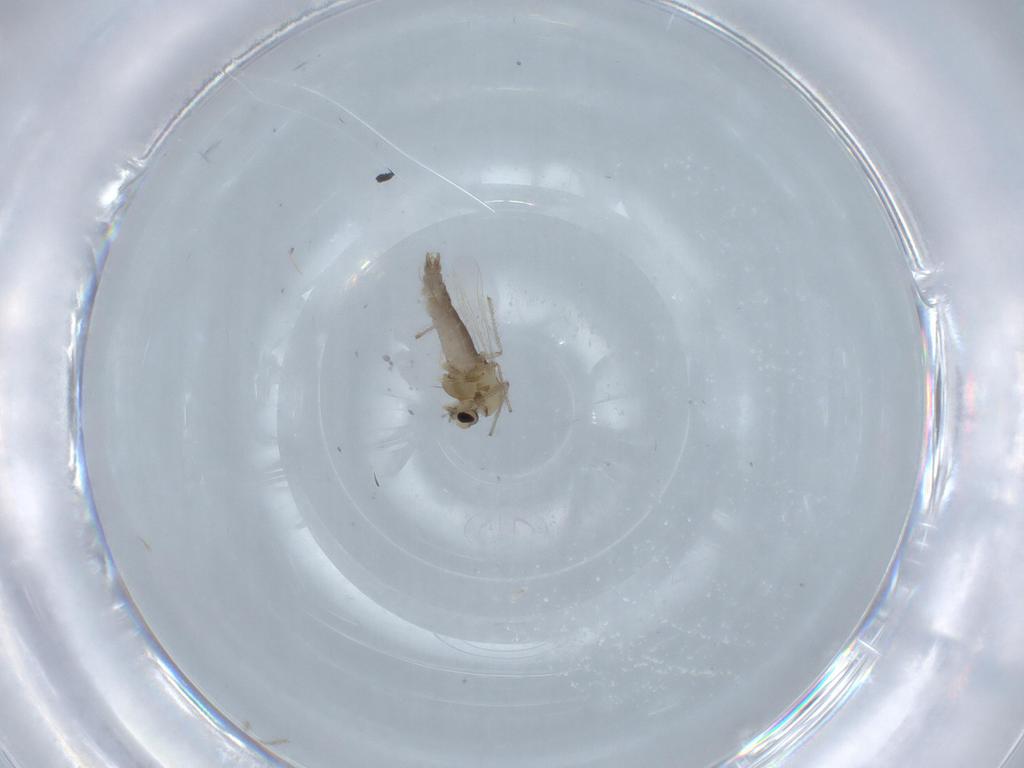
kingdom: Animalia
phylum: Arthropoda
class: Insecta
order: Diptera
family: Chironomidae
